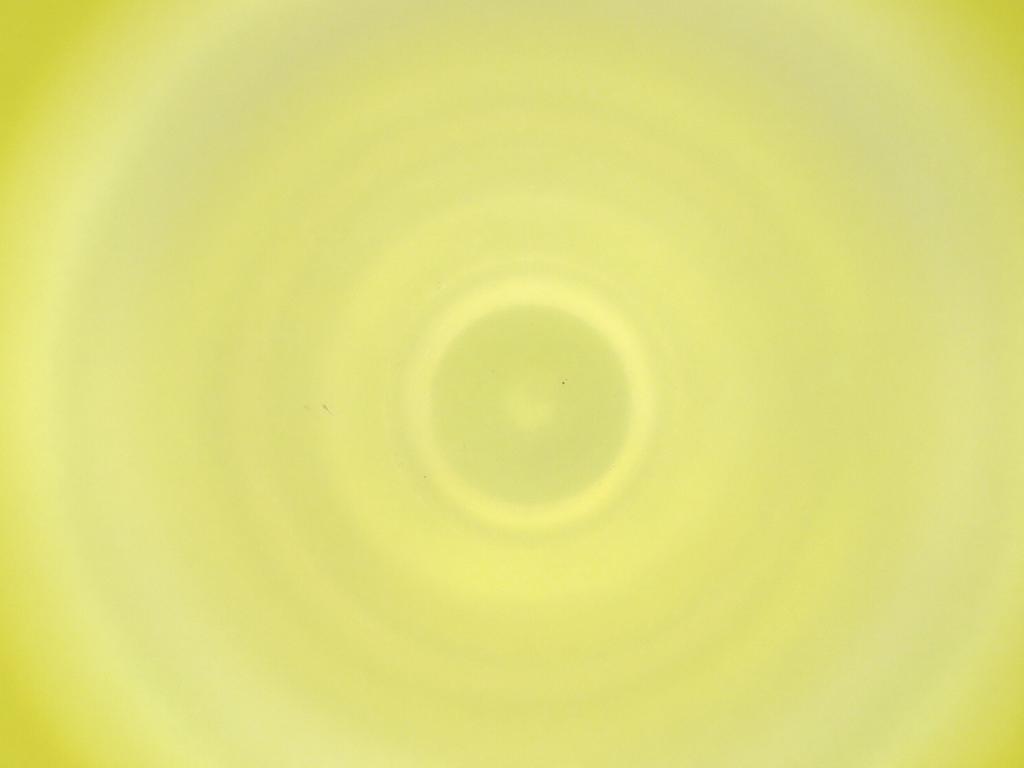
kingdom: Animalia
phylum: Arthropoda
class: Insecta
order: Diptera
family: Cecidomyiidae
